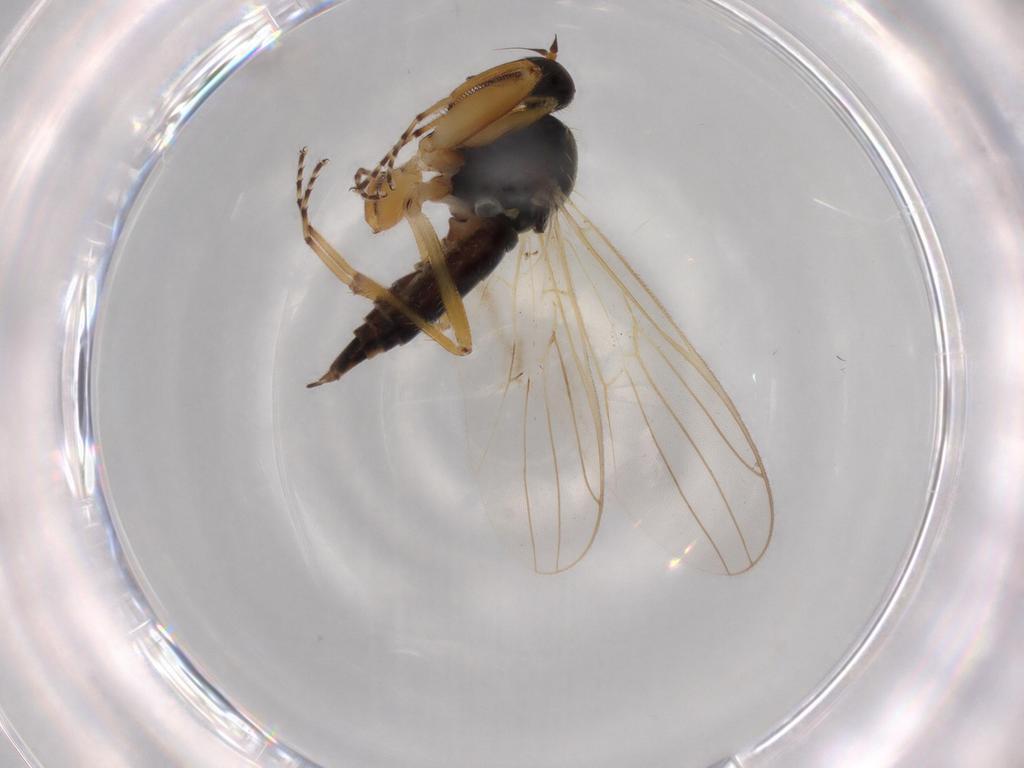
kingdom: Animalia
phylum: Arthropoda
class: Insecta
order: Diptera
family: Hybotidae
